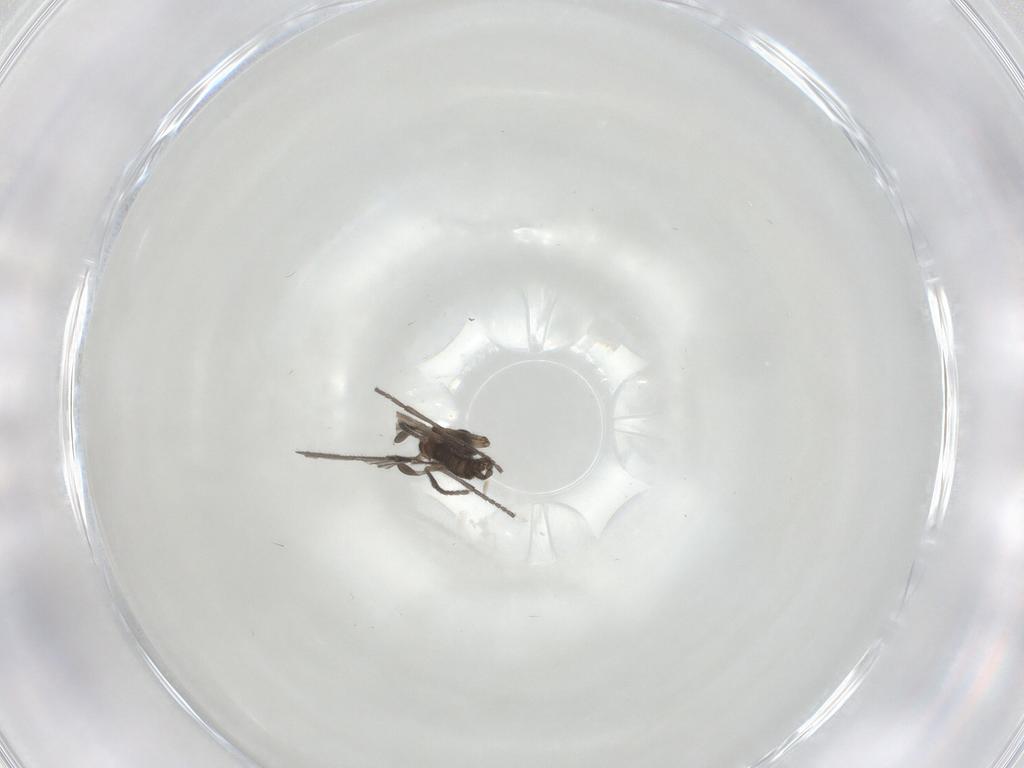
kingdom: Animalia
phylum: Arthropoda
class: Insecta
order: Diptera
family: Sciaridae
